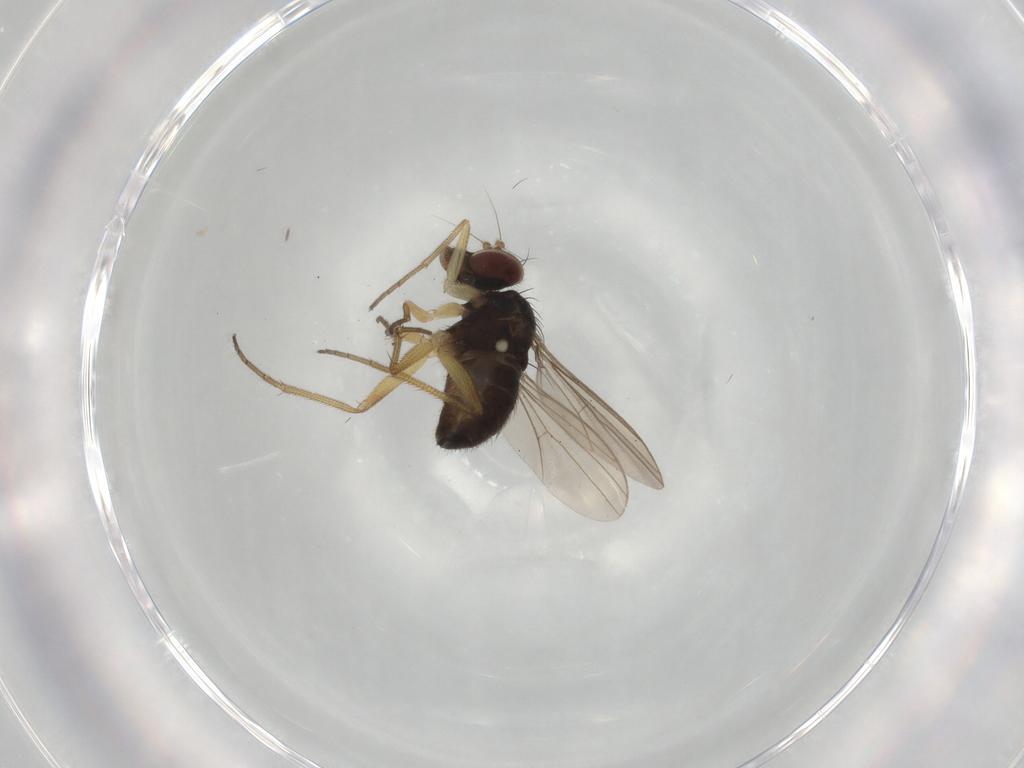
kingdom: Animalia
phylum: Arthropoda
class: Insecta
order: Diptera
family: Dolichopodidae
